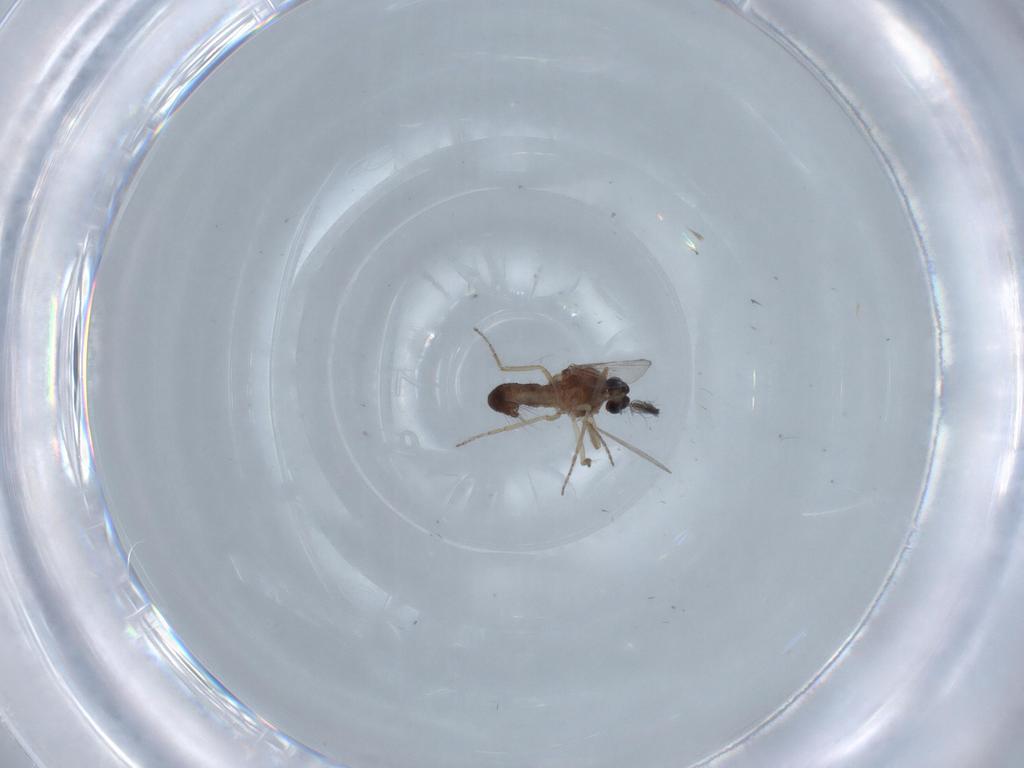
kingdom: Animalia
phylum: Arthropoda
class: Insecta
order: Diptera
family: Ceratopogonidae
